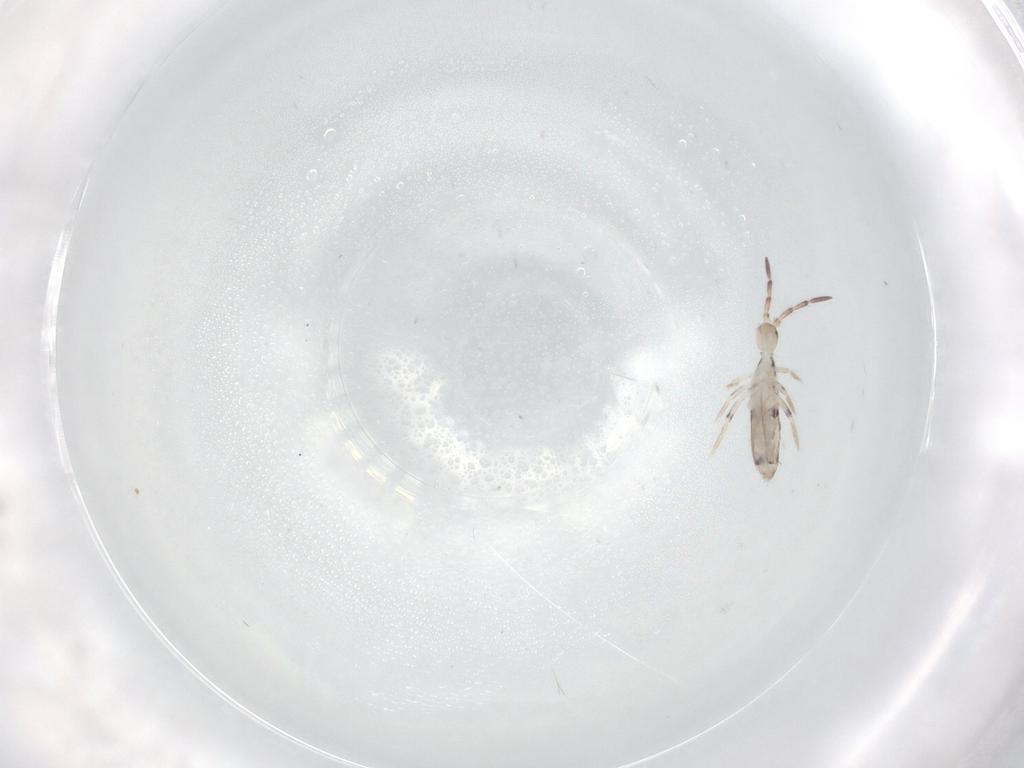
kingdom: Animalia
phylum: Arthropoda
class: Collembola
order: Entomobryomorpha
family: Entomobryidae
